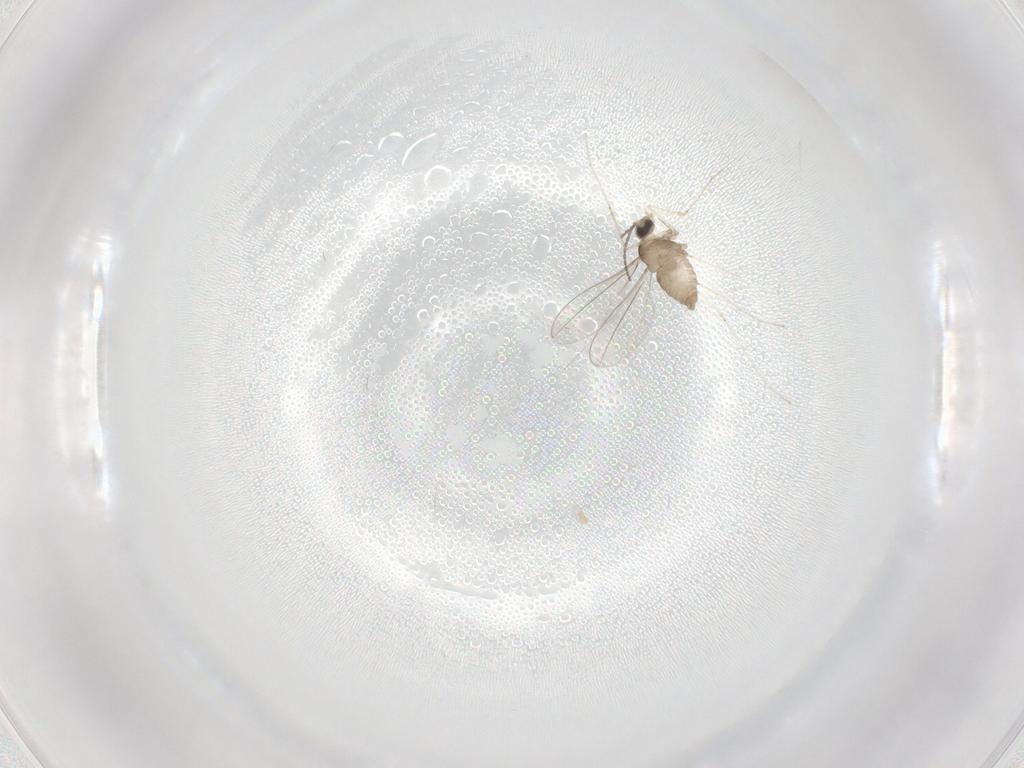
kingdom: Animalia
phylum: Arthropoda
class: Insecta
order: Diptera
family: Cecidomyiidae
